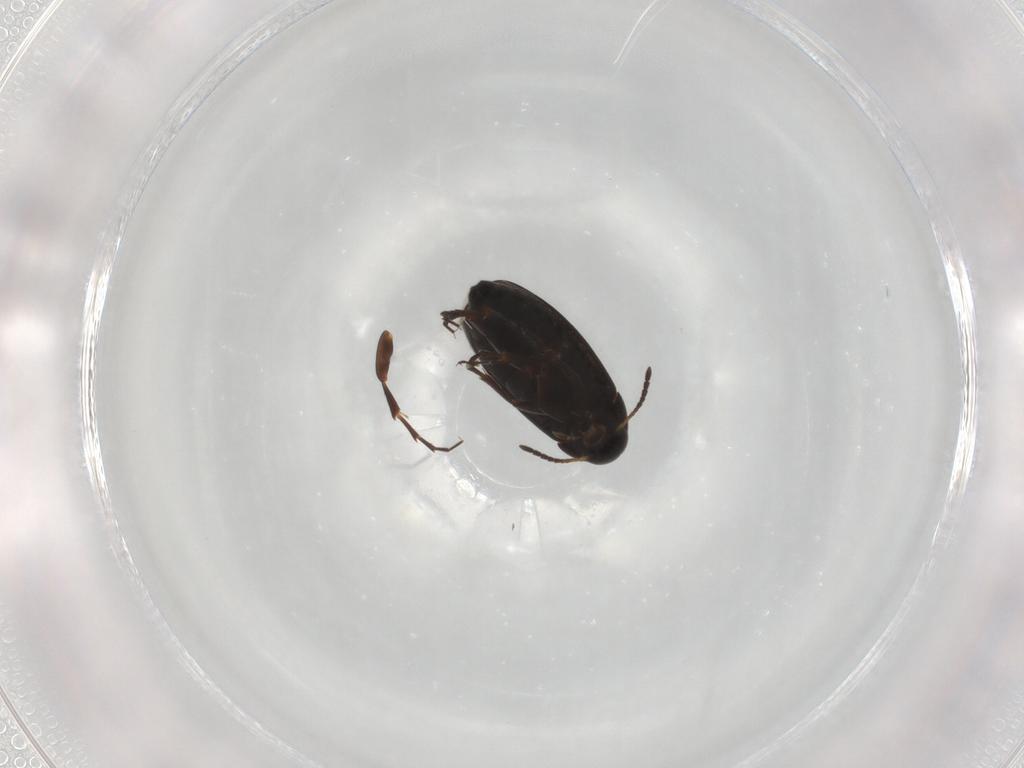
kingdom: Animalia
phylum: Arthropoda
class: Insecta
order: Coleoptera
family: Scraptiidae
